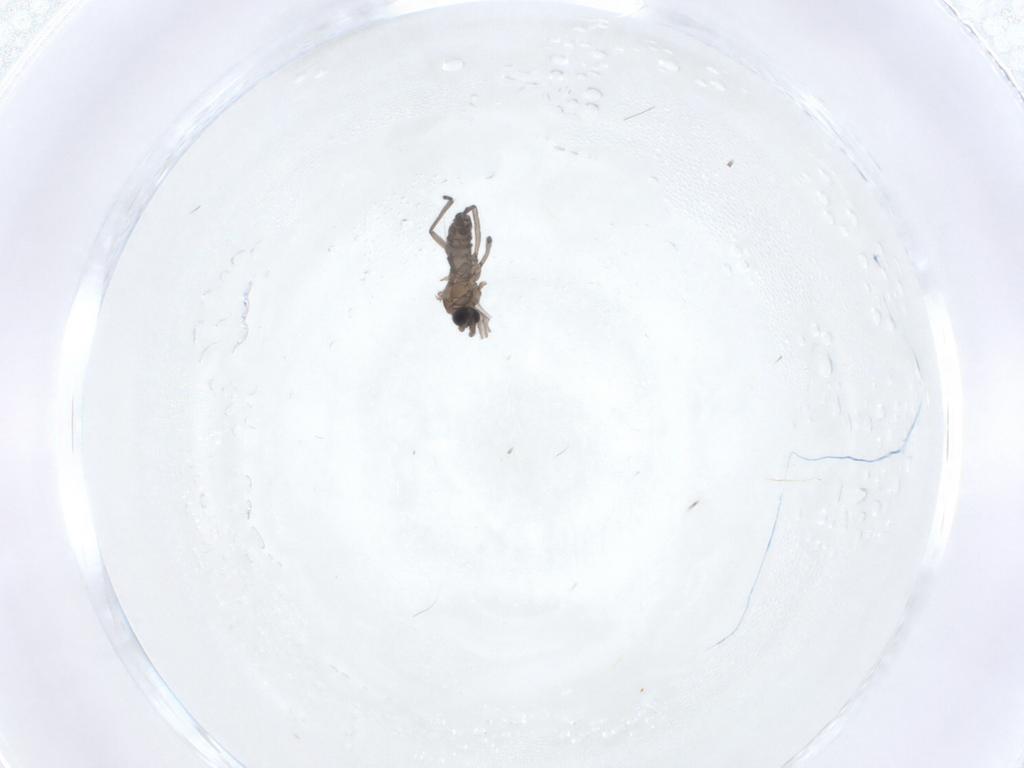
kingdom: Animalia
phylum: Arthropoda
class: Insecta
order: Diptera
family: Sciaridae
